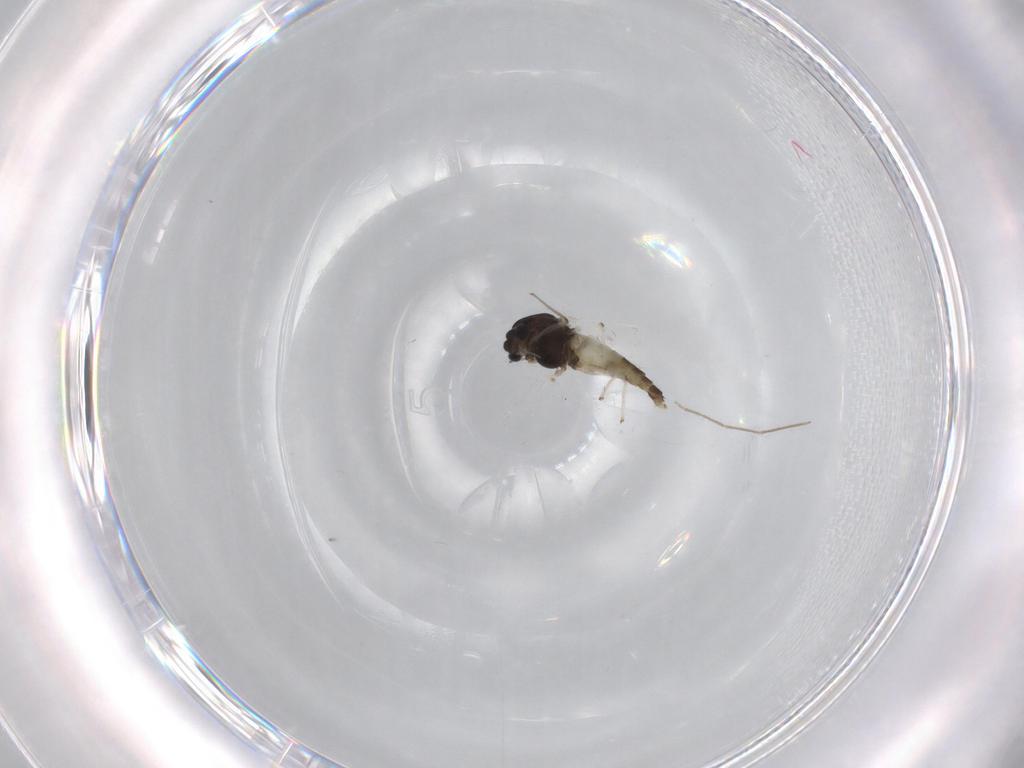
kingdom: Animalia
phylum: Arthropoda
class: Insecta
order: Diptera
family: Chironomidae
